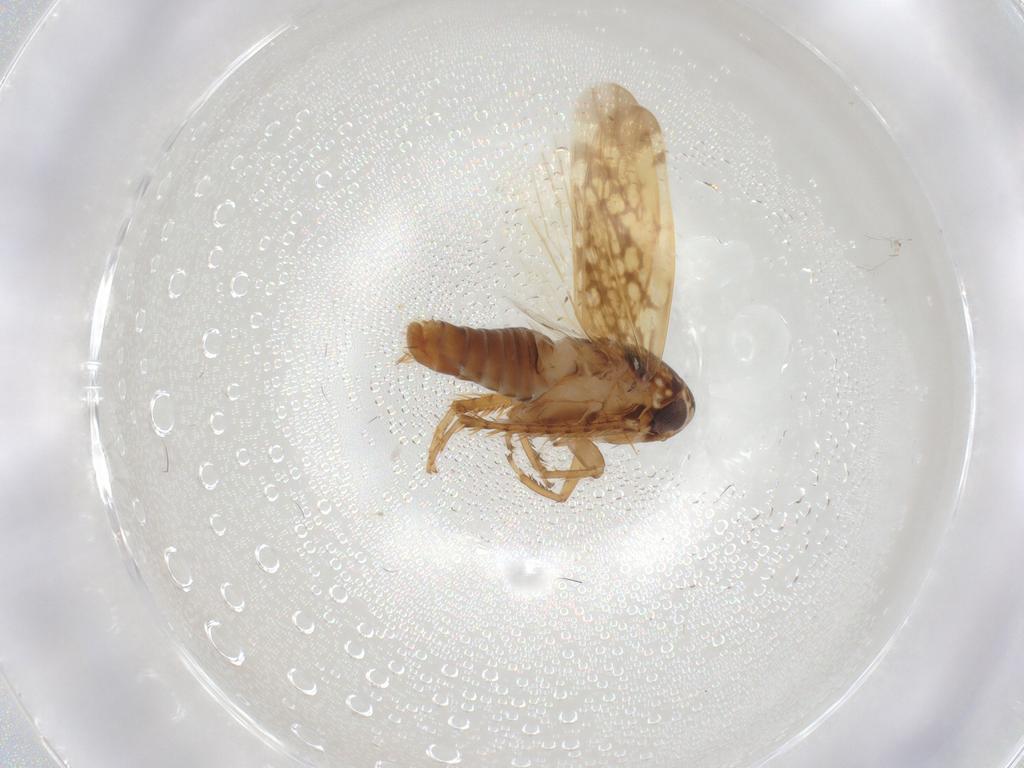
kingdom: Animalia
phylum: Arthropoda
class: Insecta
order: Hemiptera
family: Cicadellidae
